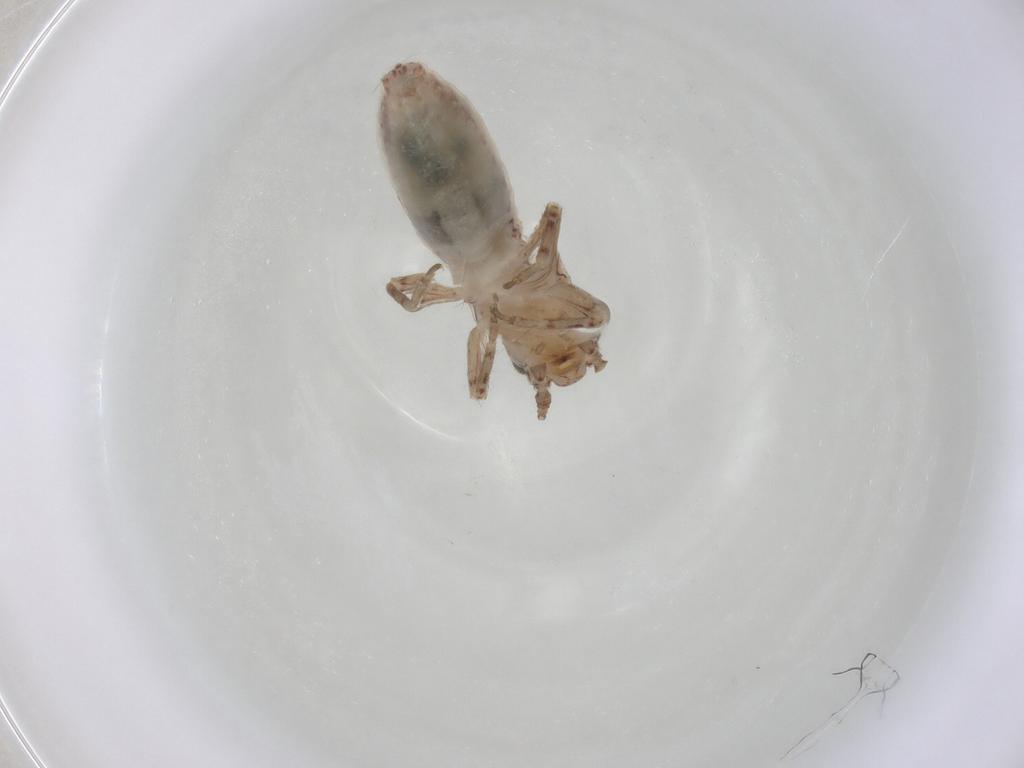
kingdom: Animalia
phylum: Arthropoda
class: Insecta
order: Orthoptera
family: Mogoplistidae
